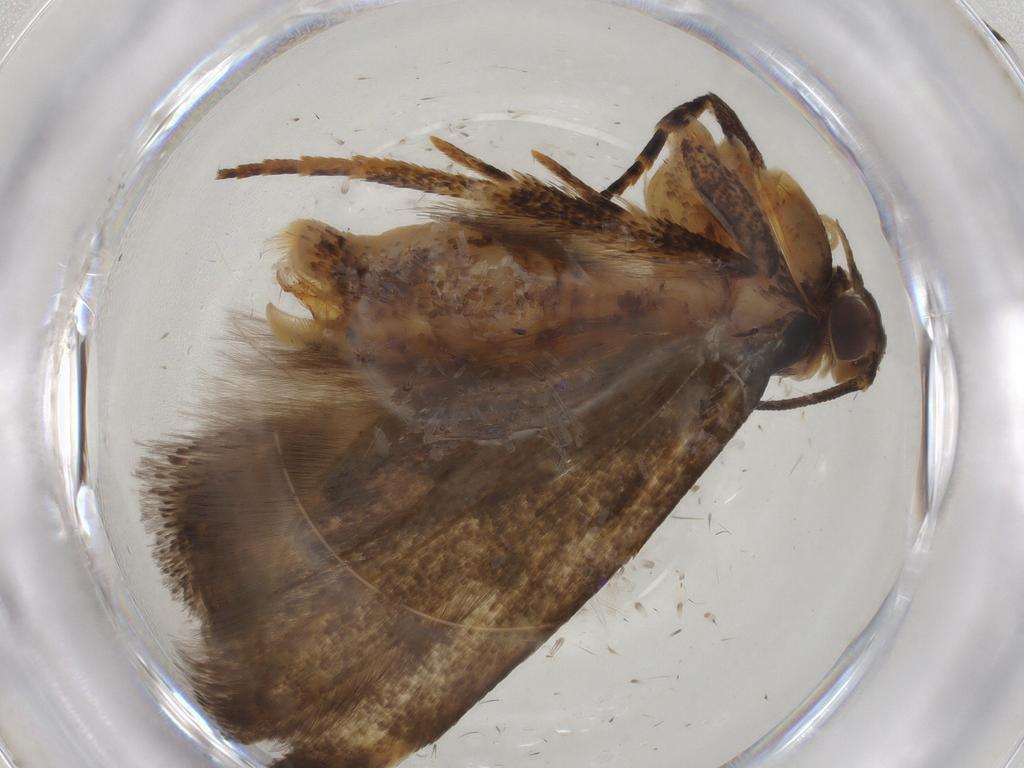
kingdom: Animalia
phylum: Arthropoda
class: Insecta
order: Lepidoptera
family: Gelechiidae
